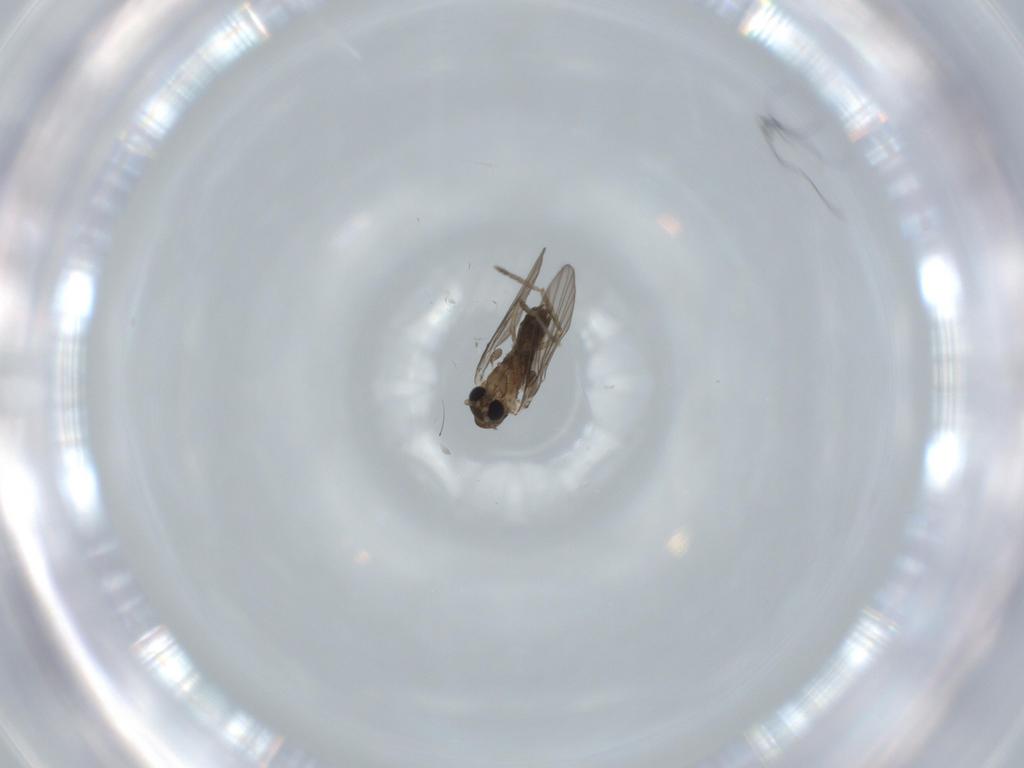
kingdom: Animalia
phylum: Arthropoda
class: Insecta
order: Diptera
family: Psychodidae
